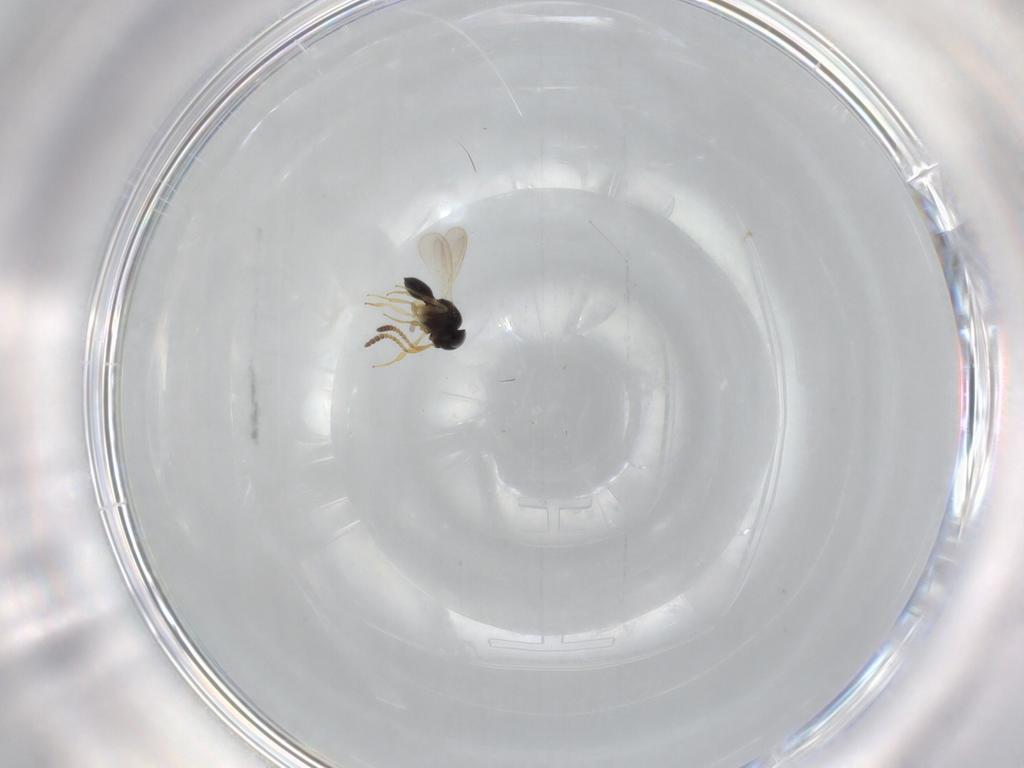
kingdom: Animalia
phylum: Arthropoda
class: Insecta
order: Hymenoptera
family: Scelionidae
